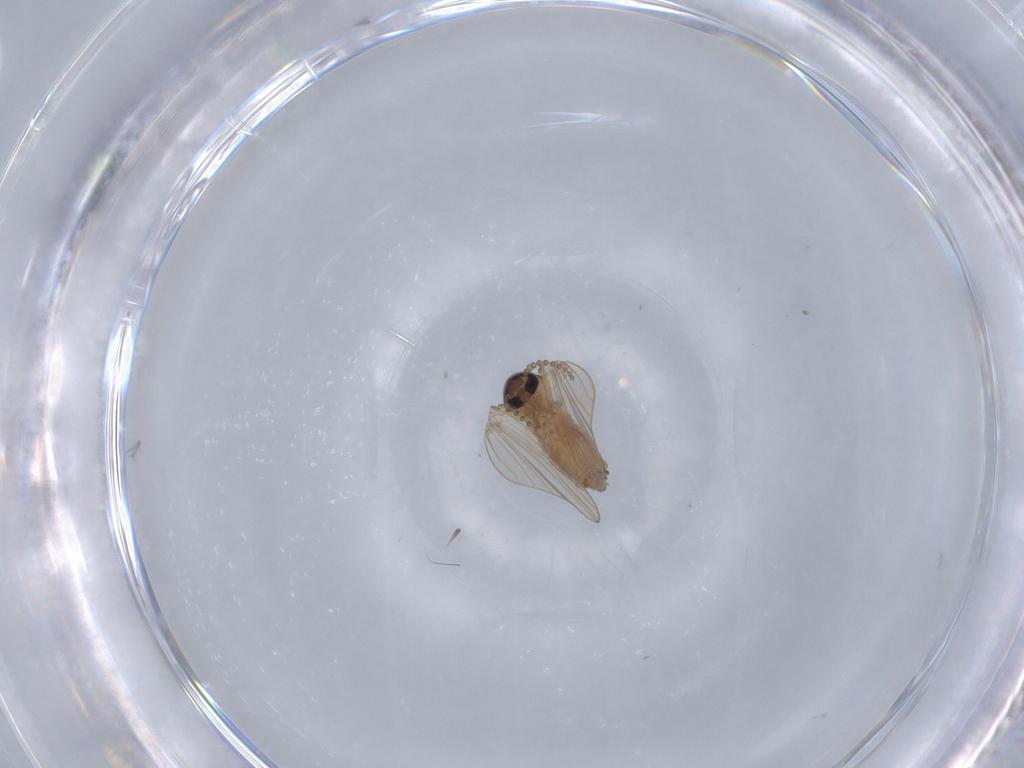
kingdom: Animalia
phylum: Arthropoda
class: Insecta
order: Diptera
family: Psychodidae
